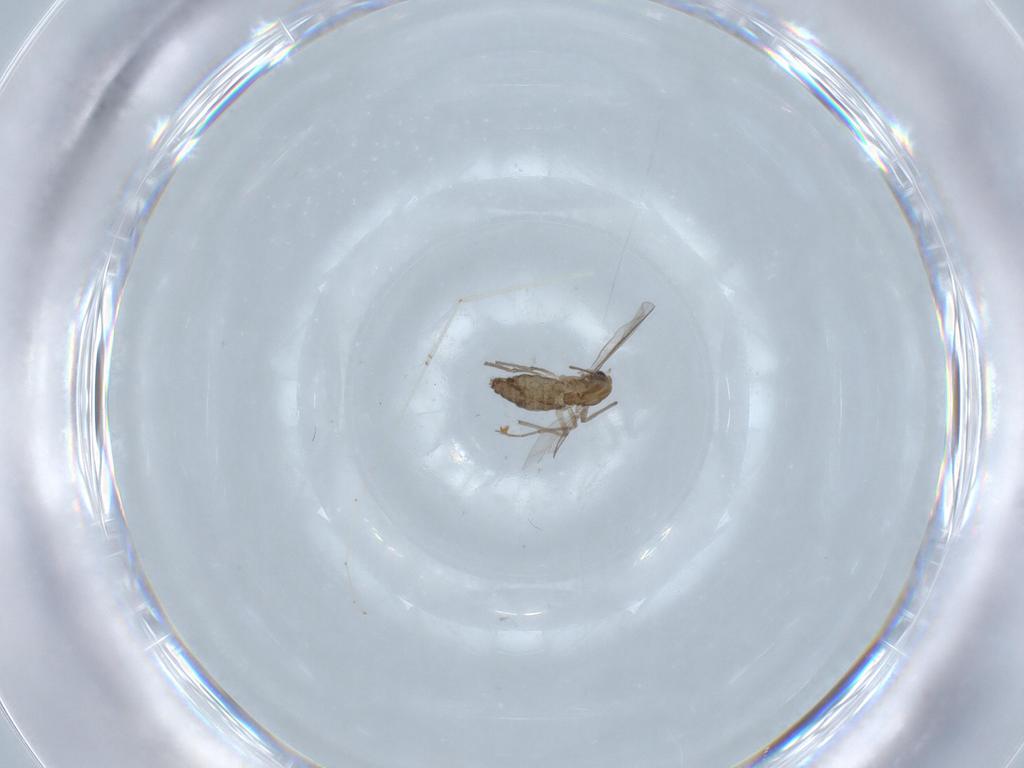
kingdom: Animalia
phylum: Arthropoda
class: Insecta
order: Diptera
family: Chironomidae
